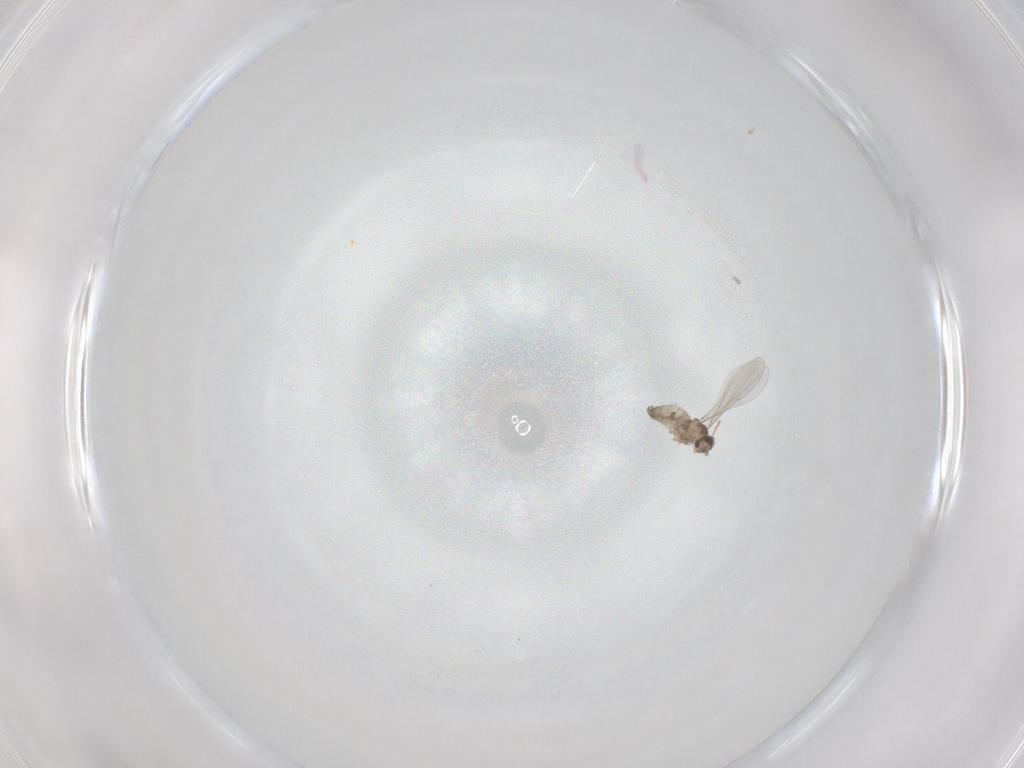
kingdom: Animalia
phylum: Arthropoda
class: Insecta
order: Diptera
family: Cecidomyiidae
